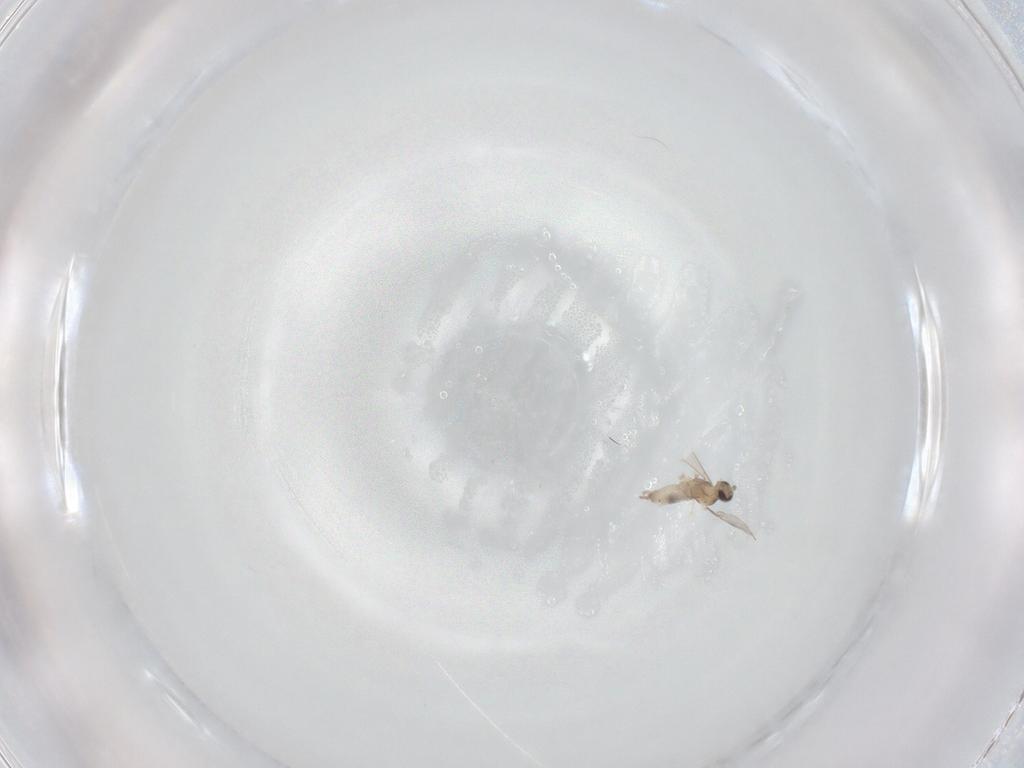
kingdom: Animalia
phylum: Arthropoda
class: Insecta
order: Diptera
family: Cecidomyiidae
